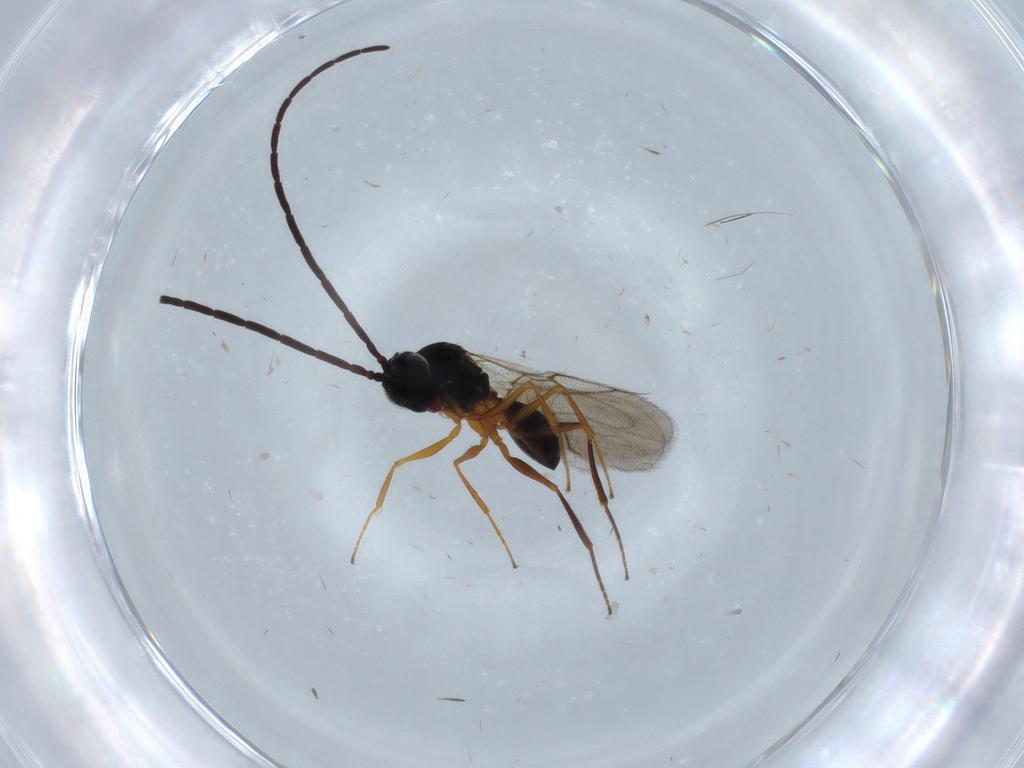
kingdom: Animalia
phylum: Arthropoda
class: Insecta
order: Hymenoptera
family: Figitidae
